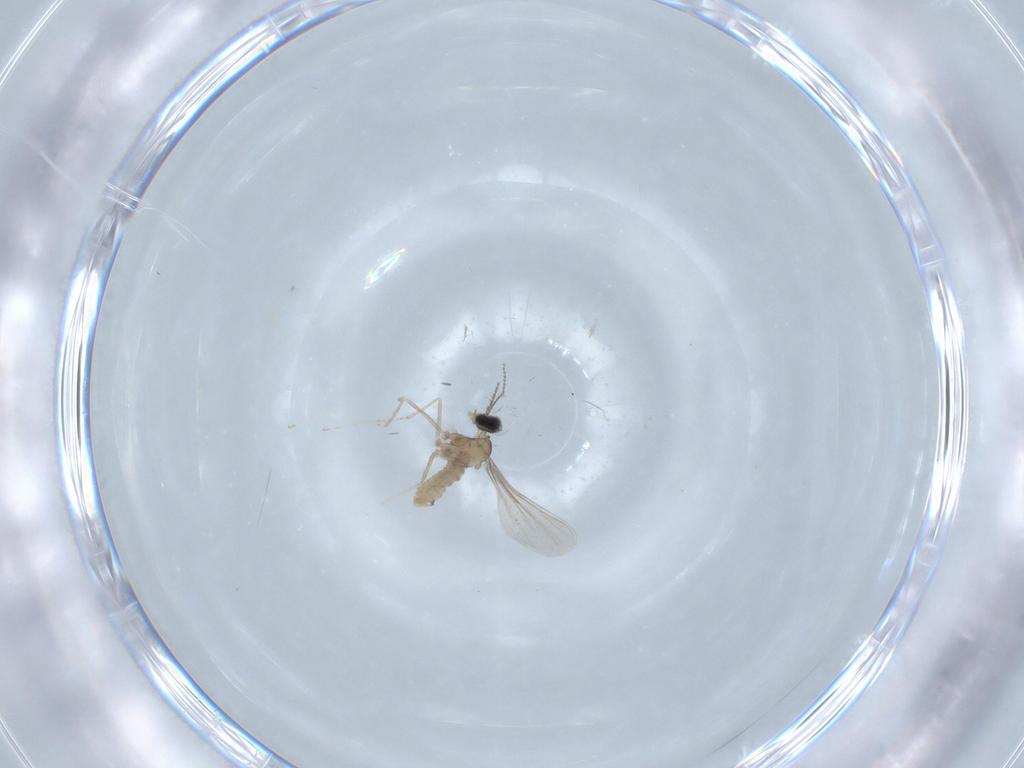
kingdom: Animalia
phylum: Arthropoda
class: Insecta
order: Diptera
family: Cecidomyiidae
